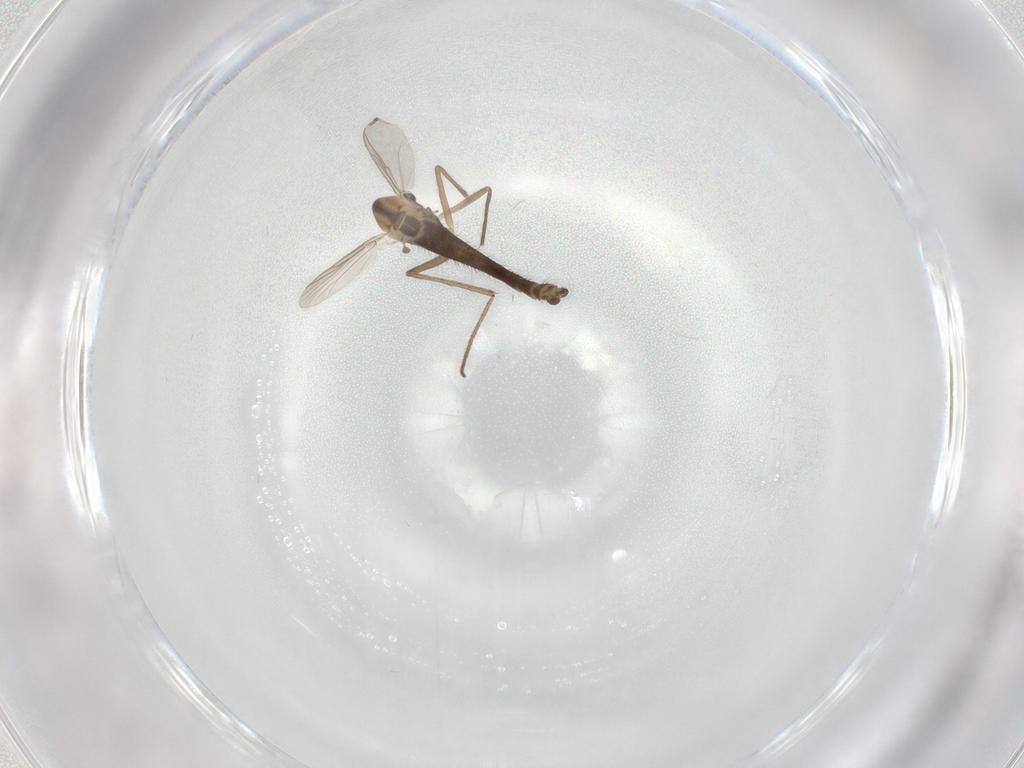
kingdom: Animalia
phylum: Arthropoda
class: Insecta
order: Diptera
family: Chironomidae
